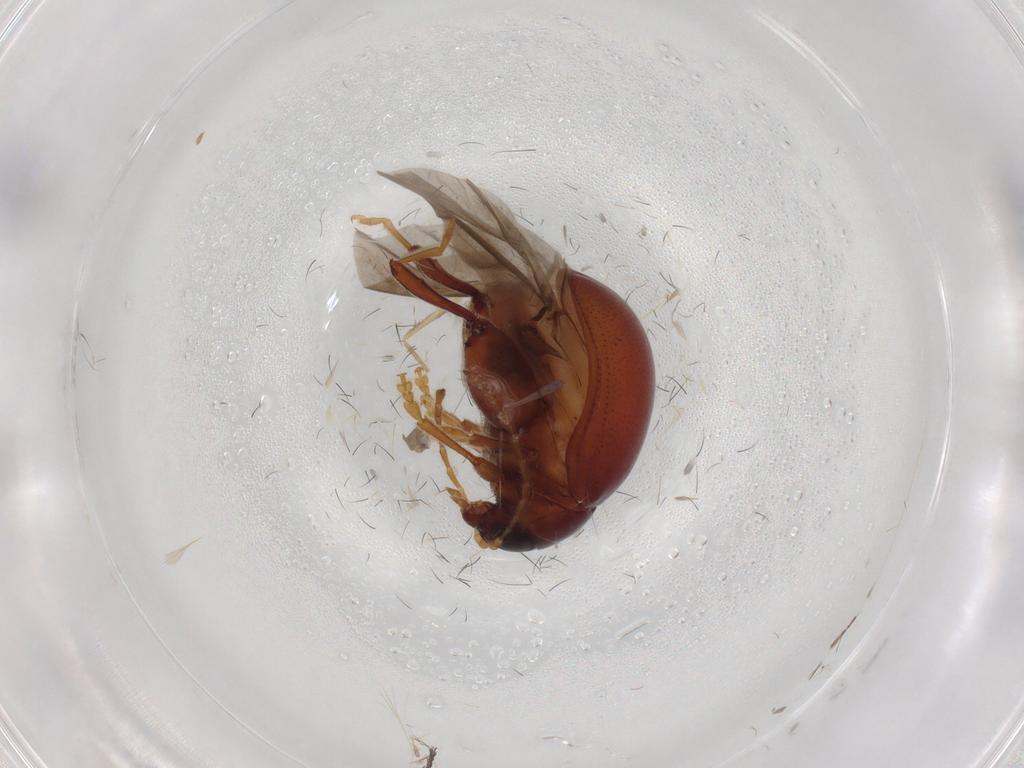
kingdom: Animalia
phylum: Arthropoda
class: Insecta
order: Coleoptera
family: Chrysomelidae
